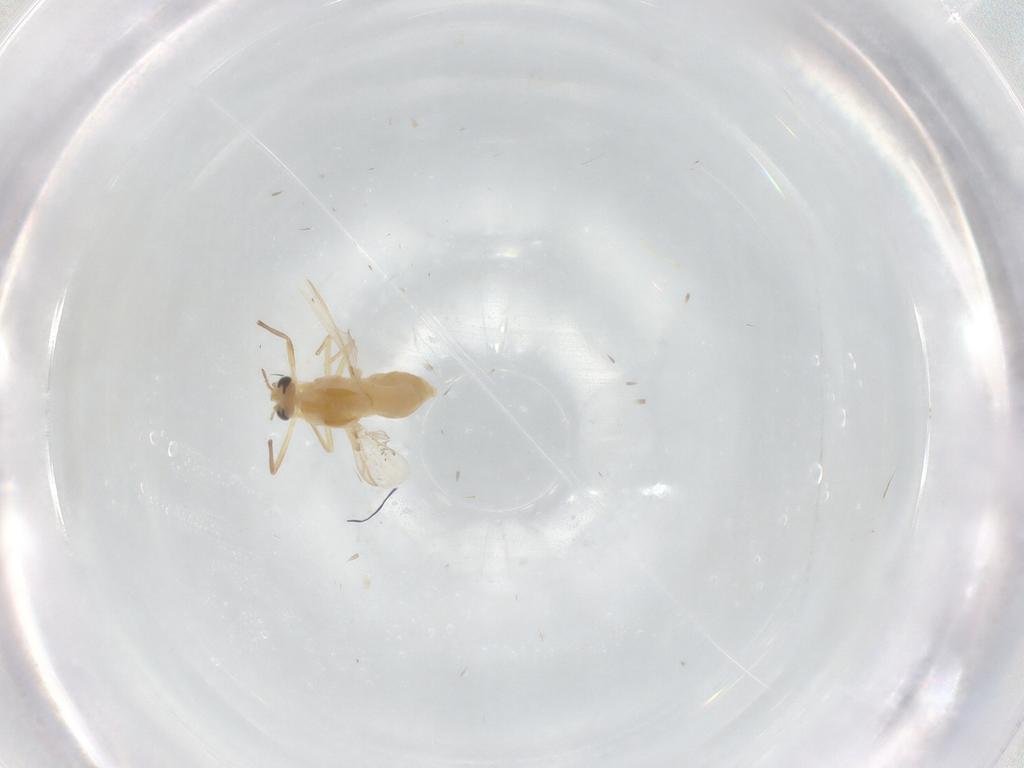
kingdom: Animalia
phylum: Arthropoda
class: Insecta
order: Diptera
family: Chironomidae
